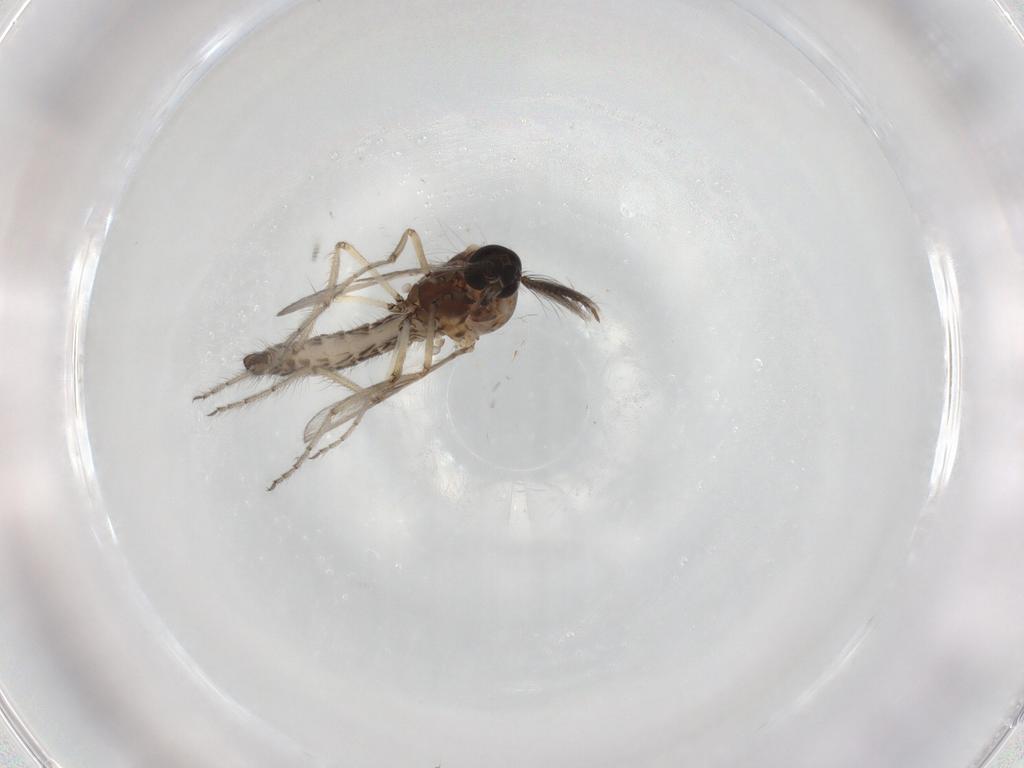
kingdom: Animalia
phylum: Arthropoda
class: Insecta
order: Diptera
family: Ceratopogonidae
